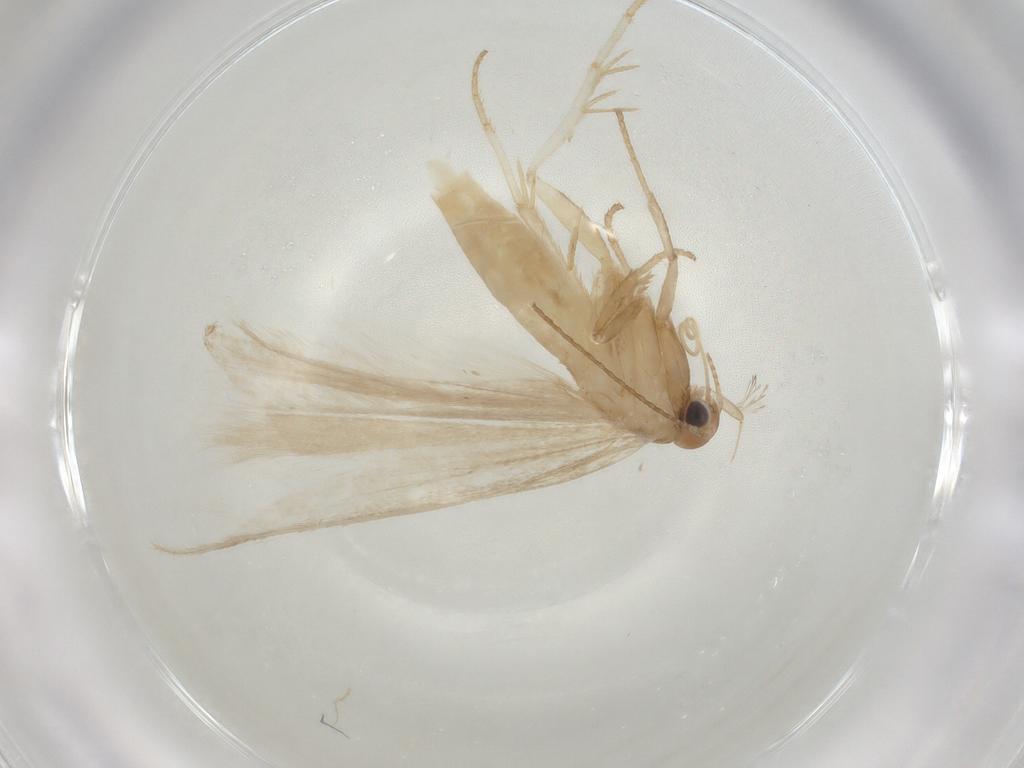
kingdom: Animalia
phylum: Arthropoda
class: Insecta
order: Lepidoptera
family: Gelechiidae
